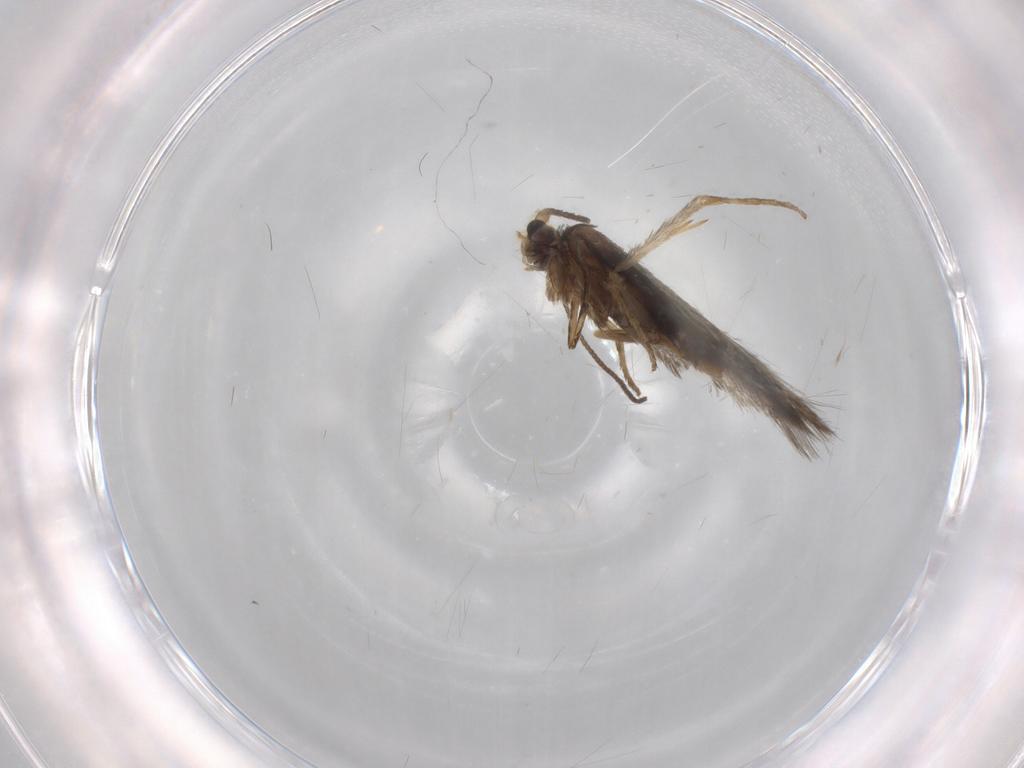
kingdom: Animalia
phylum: Arthropoda
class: Insecta
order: Lepidoptera
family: Nepticulidae
